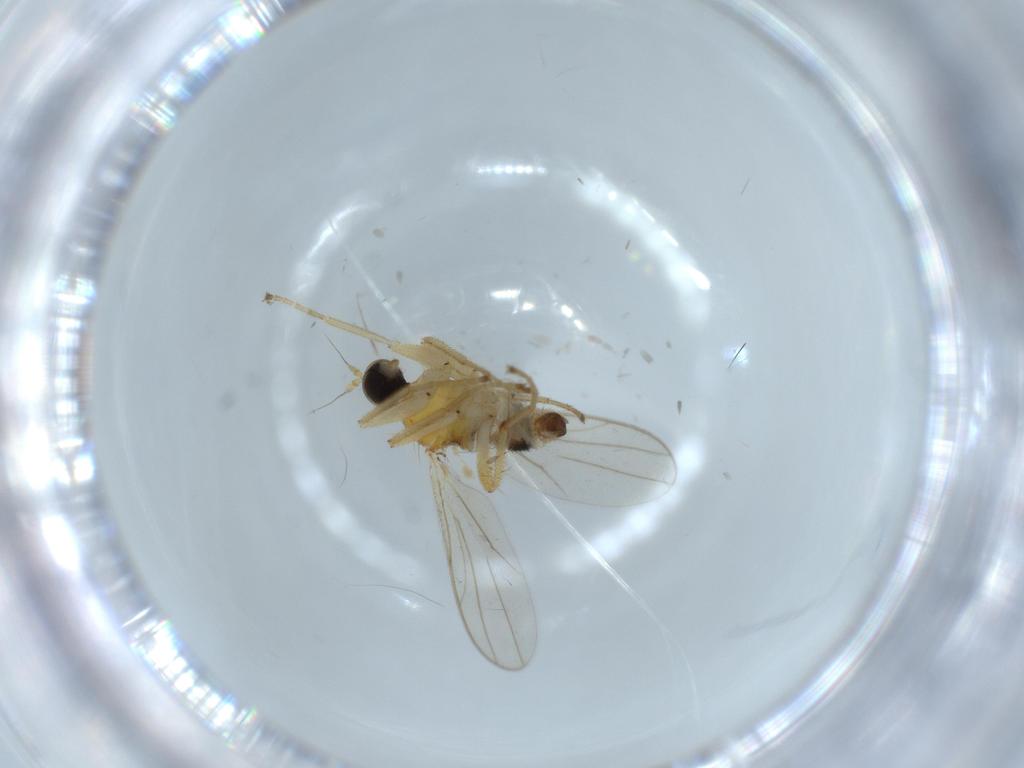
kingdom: Animalia
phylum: Arthropoda
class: Insecta
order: Diptera
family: Hybotidae
